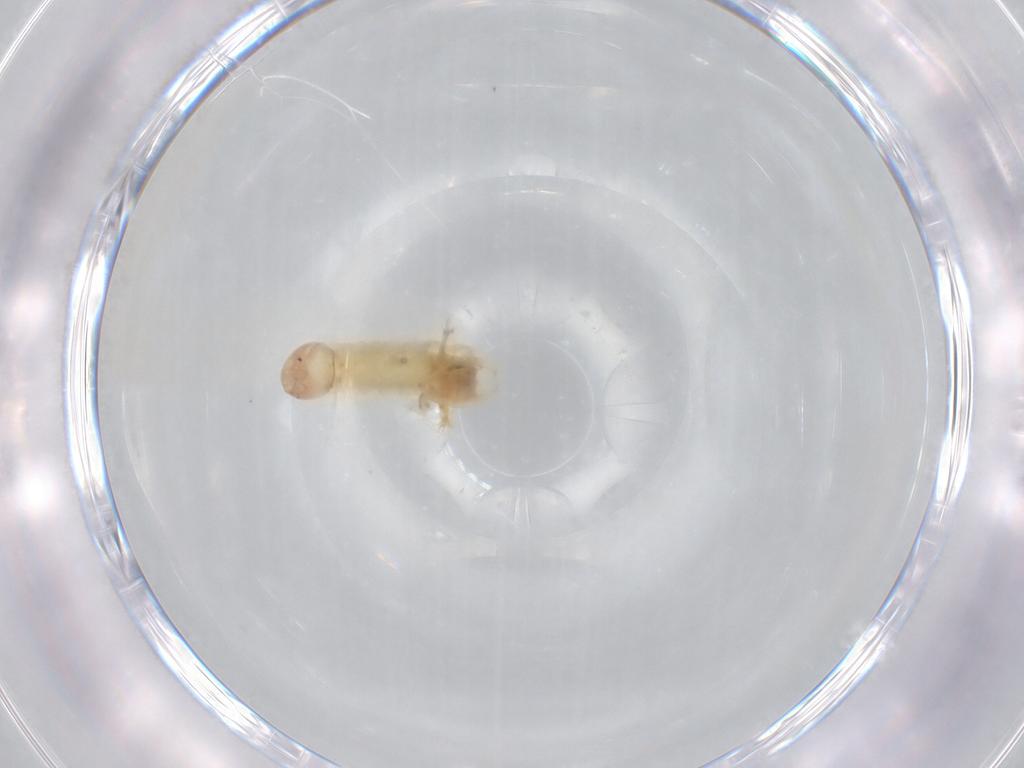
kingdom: Animalia
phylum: Arthropoda
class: Insecta
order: Diptera
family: Chironomidae
